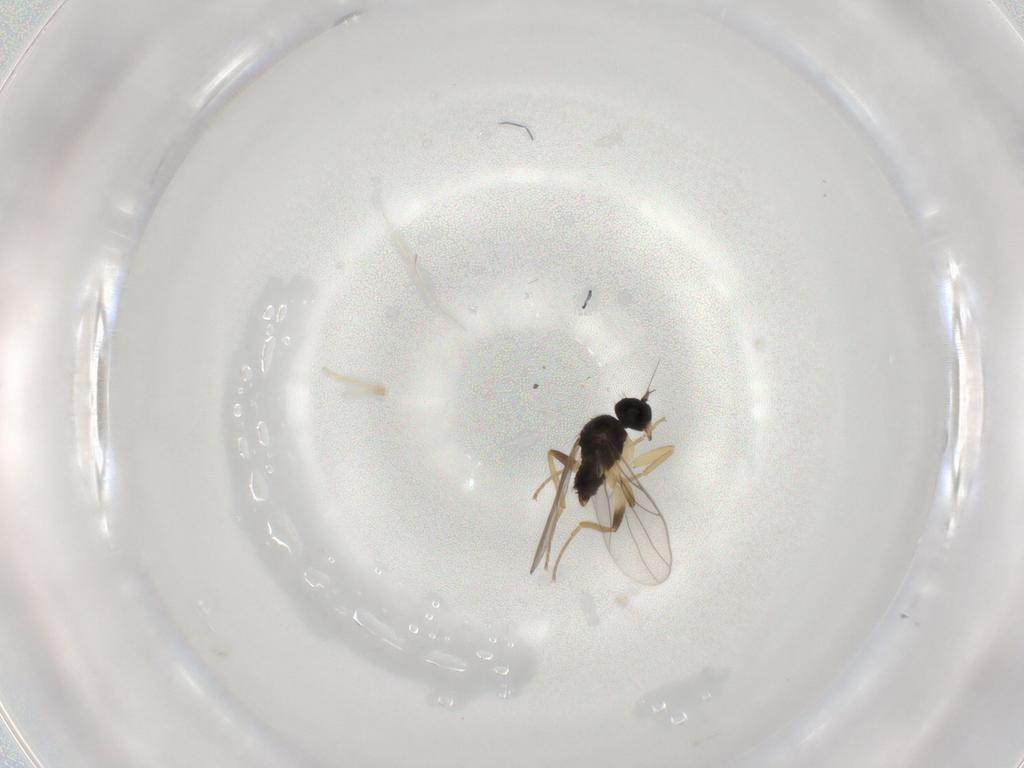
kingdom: Animalia
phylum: Arthropoda
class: Insecta
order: Diptera
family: Hybotidae
